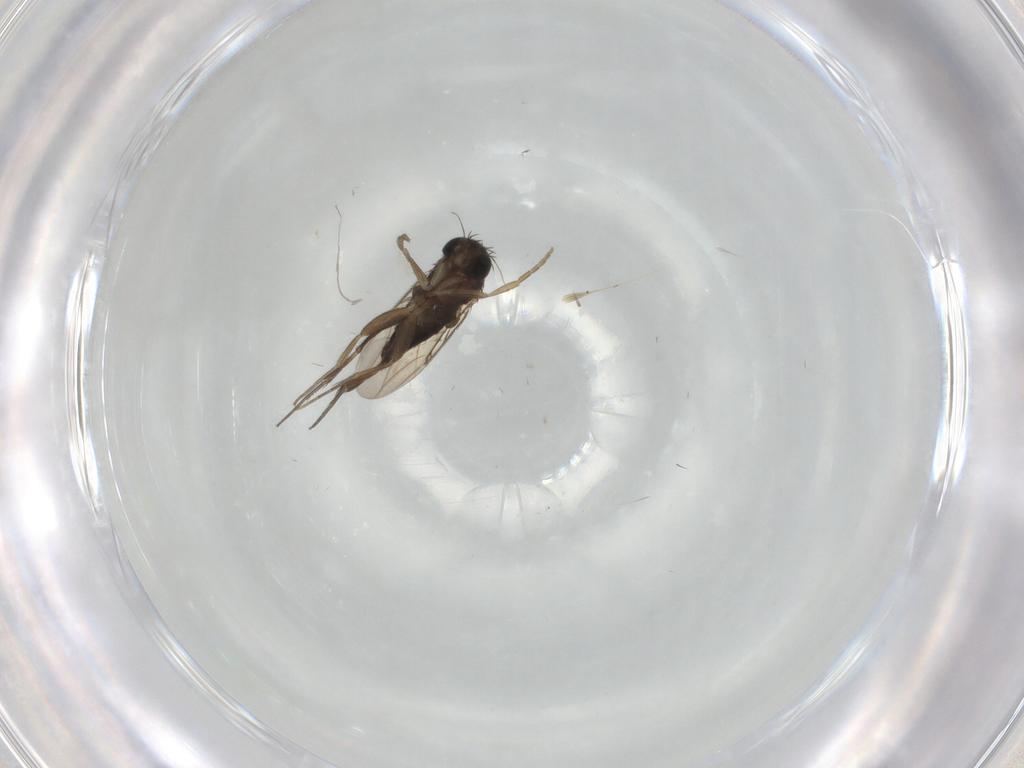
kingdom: Animalia
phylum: Arthropoda
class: Insecta
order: Diptera
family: Phoridae
